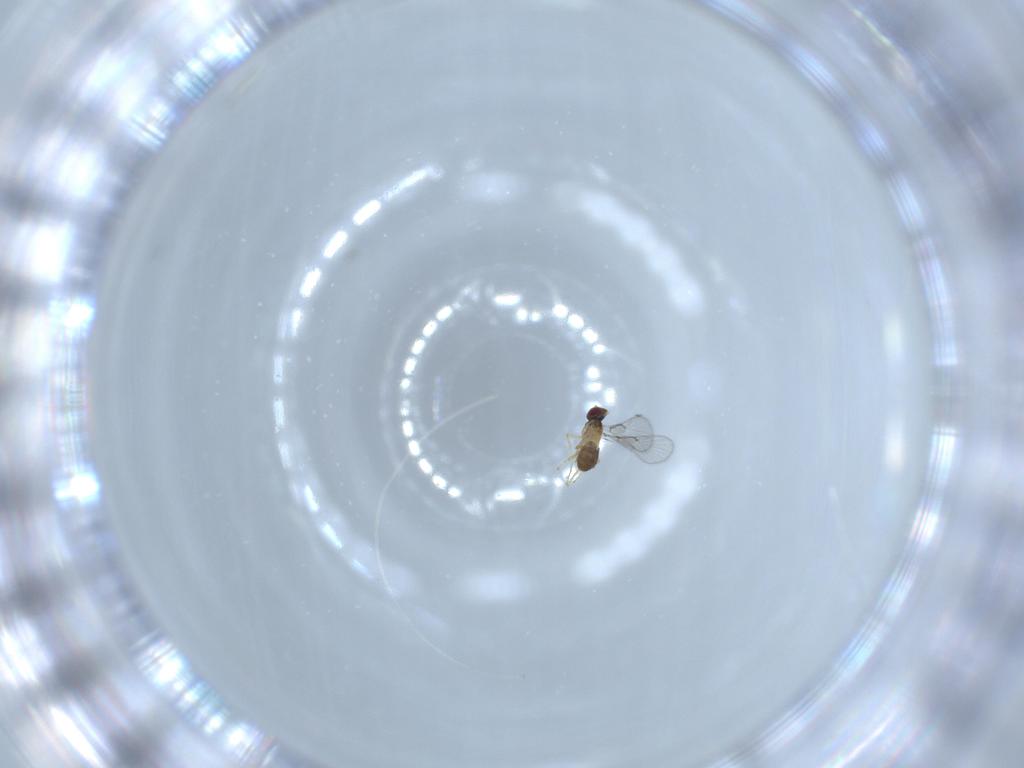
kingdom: Animalia
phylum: Arthropoda
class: Insecta
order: Hymenoptera
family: Trichogrammatidae
